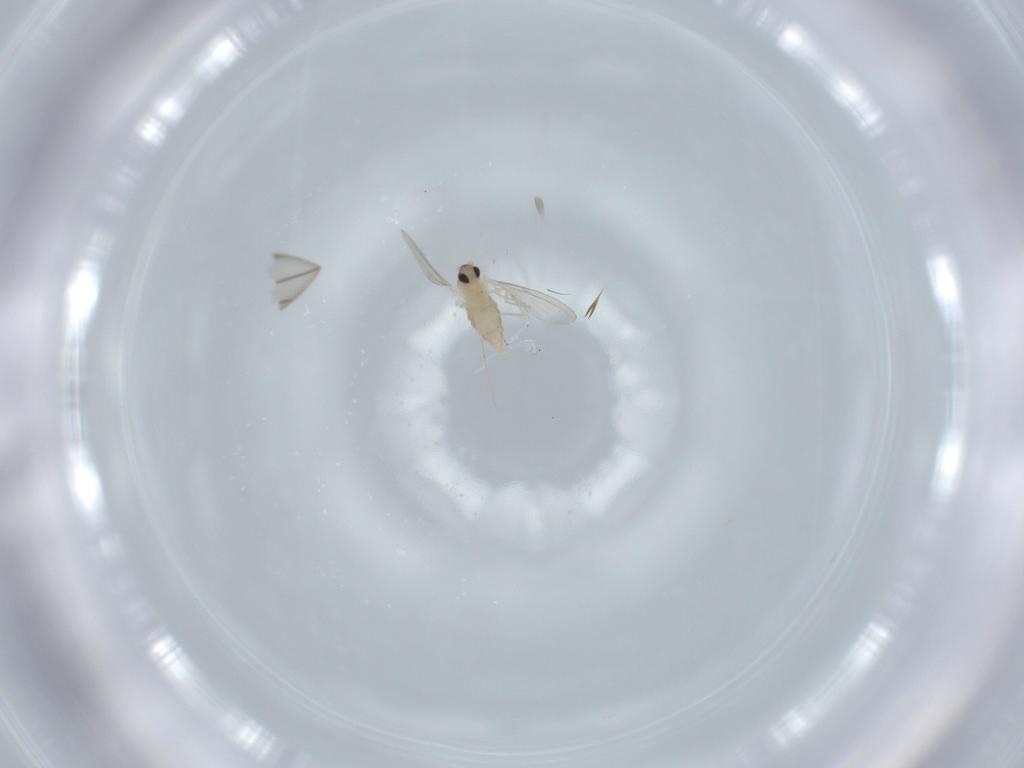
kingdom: Animalia
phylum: Arthropoda
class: Insecta
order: Diptera
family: Cecidomyiidae
